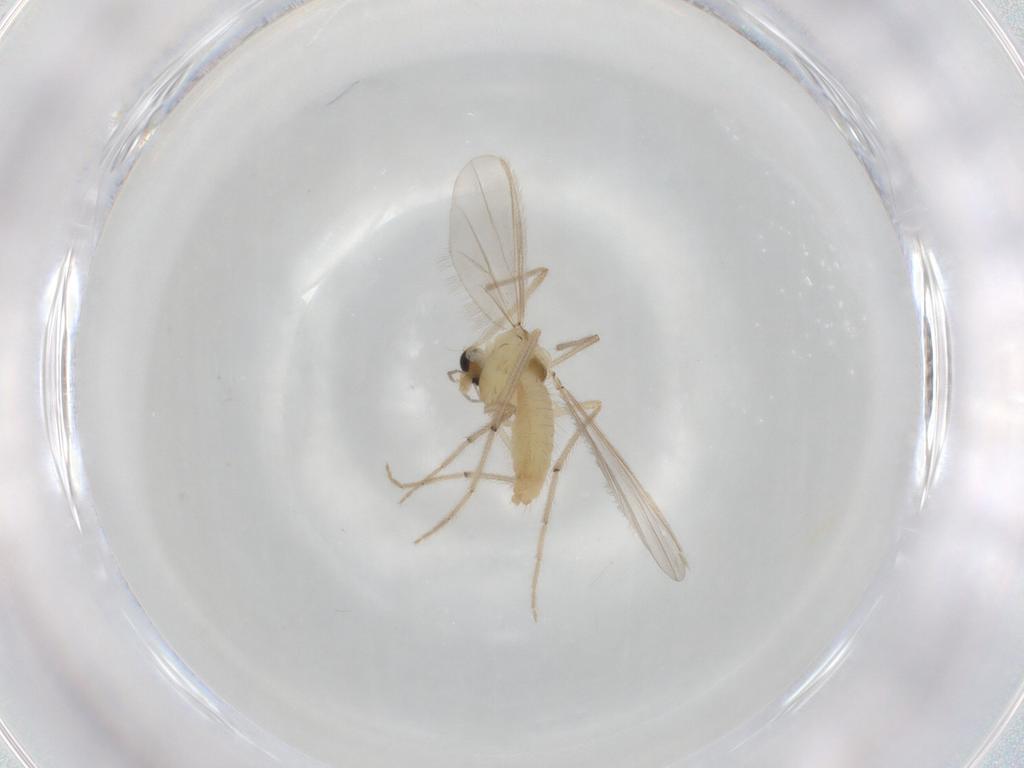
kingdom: Animalia
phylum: Arthropoda
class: Insecta
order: Diptera
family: Chironomidae
